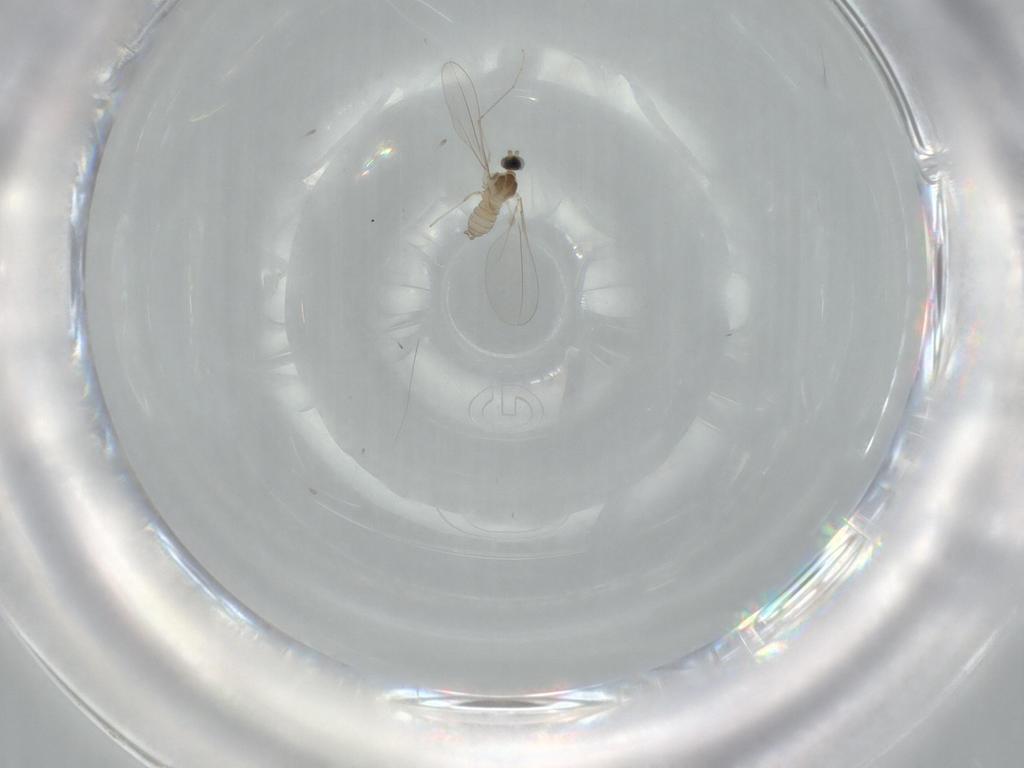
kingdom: Animalia
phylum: Arthropoda
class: Insecta
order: Diptera
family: Cecidomyiidae
